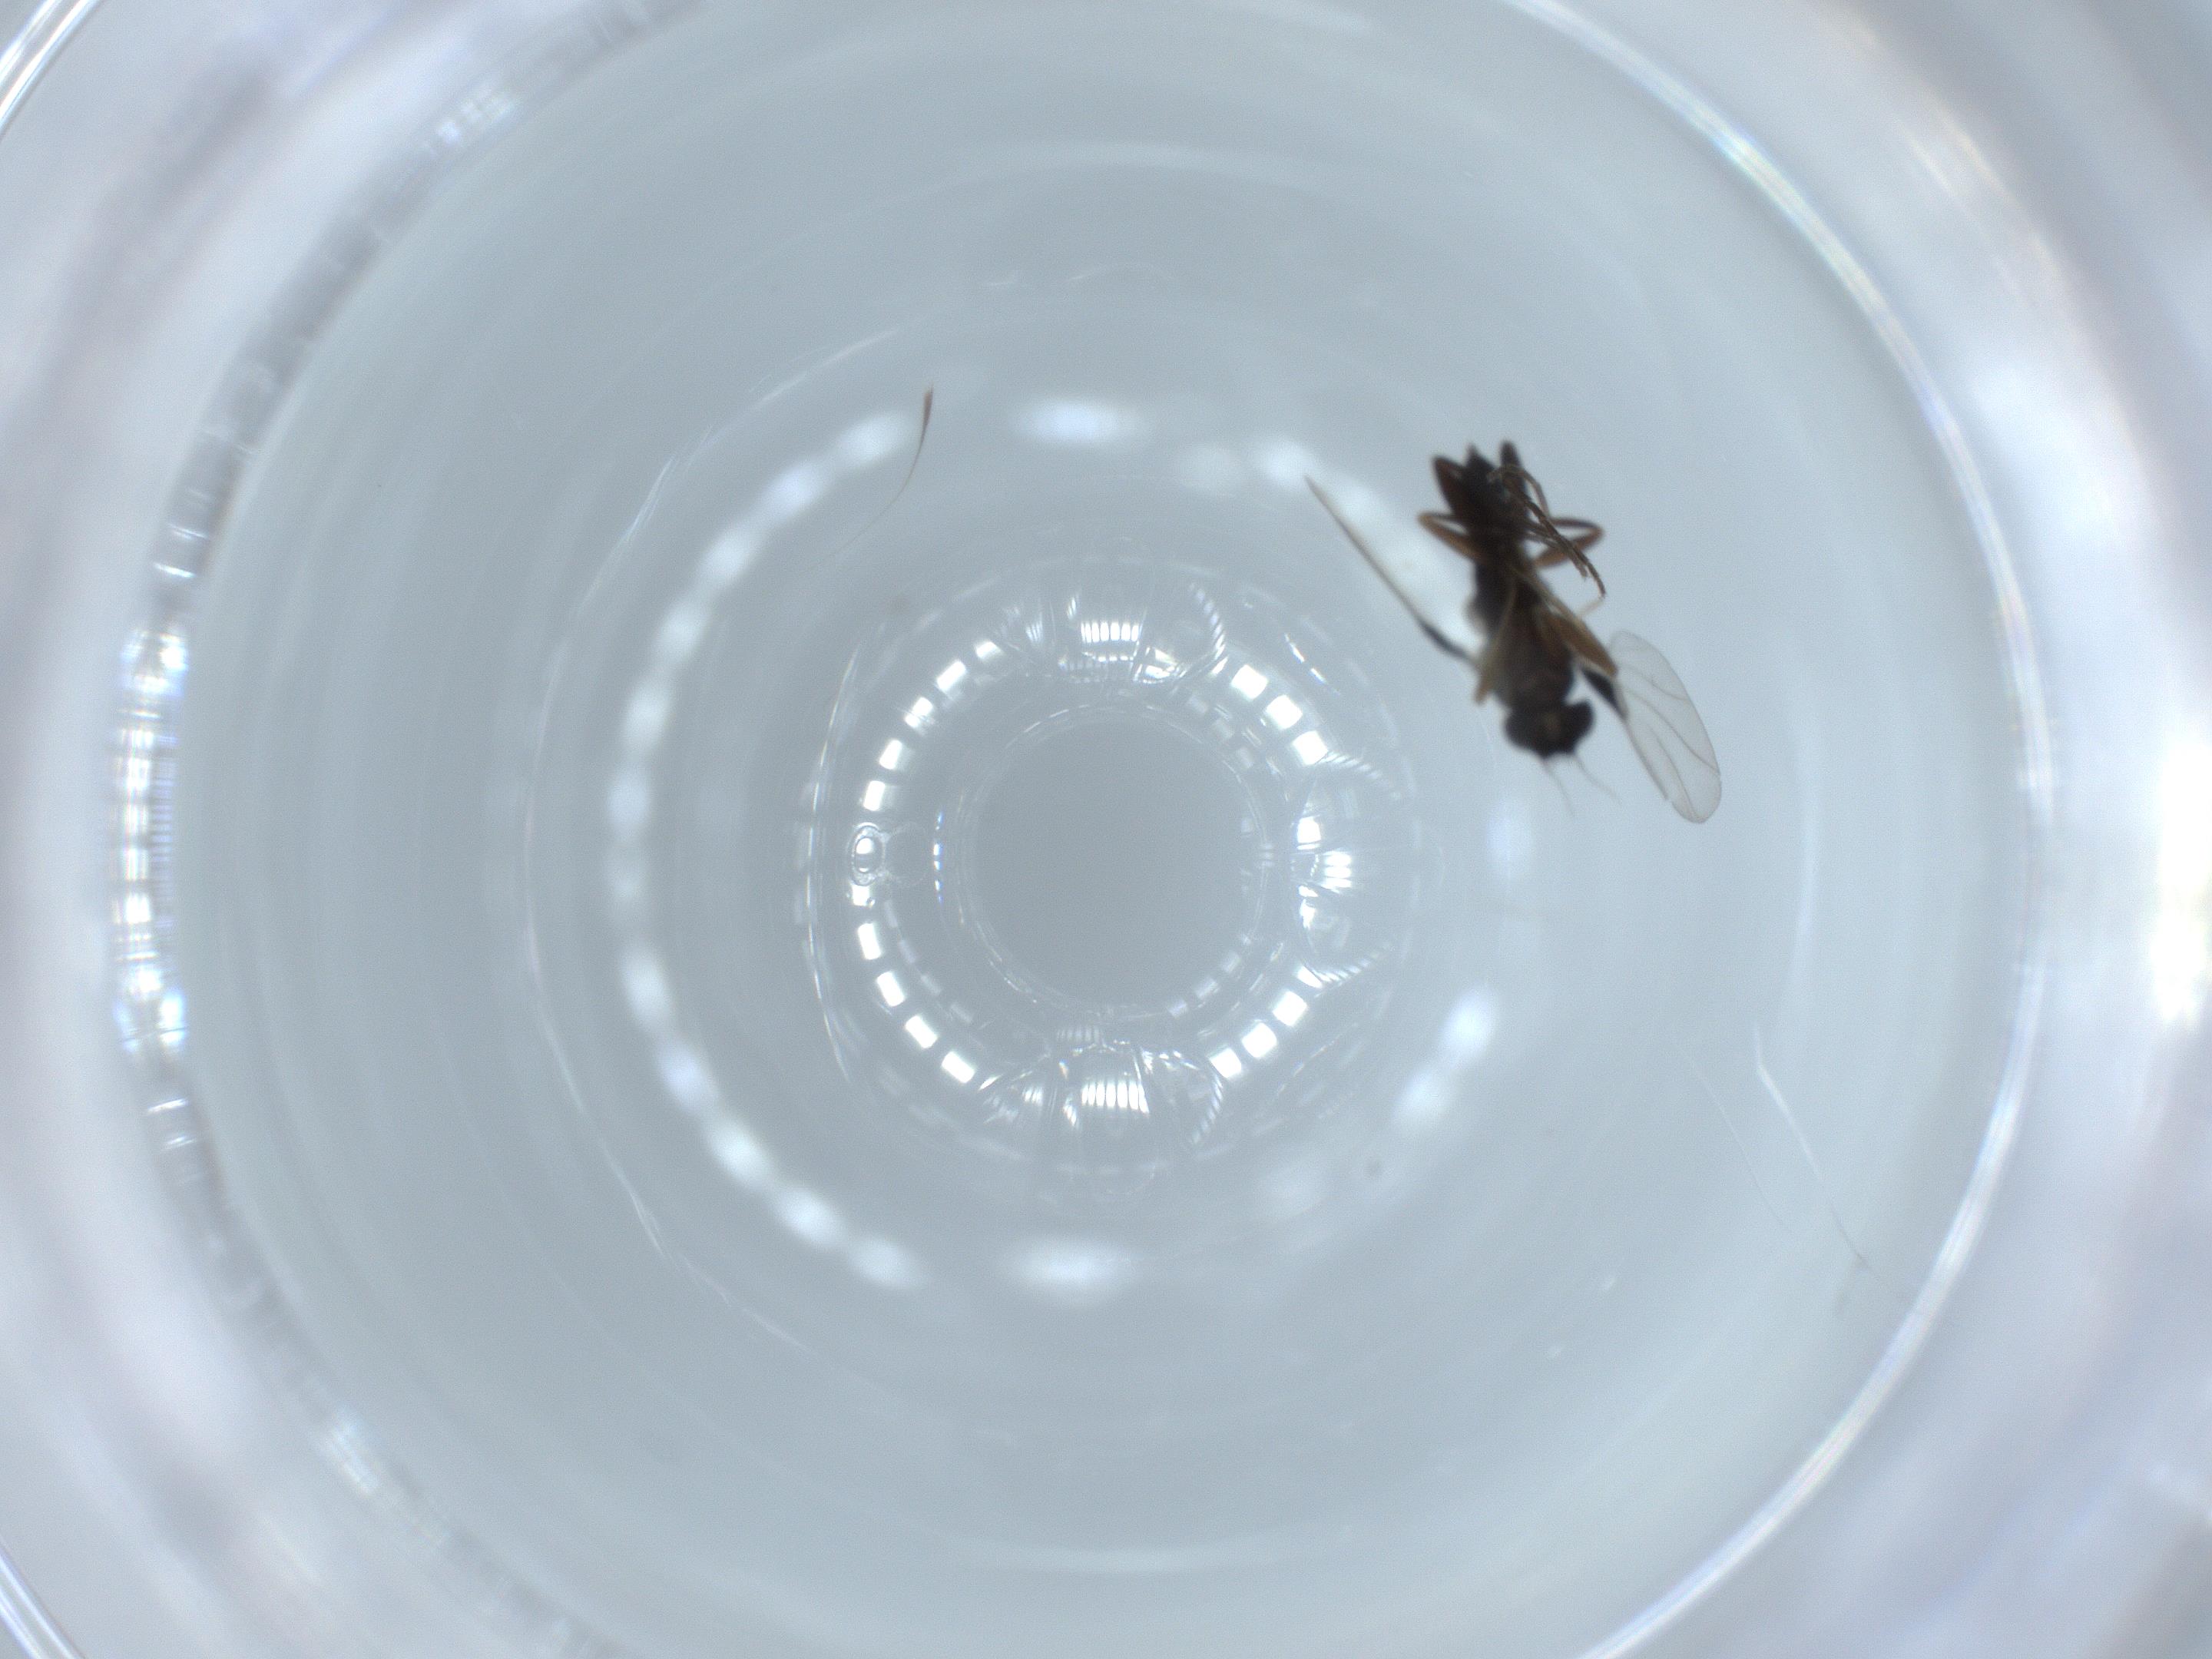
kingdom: Animalia
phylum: Arthropoda
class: Insecta
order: Diptera
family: Phoridae
